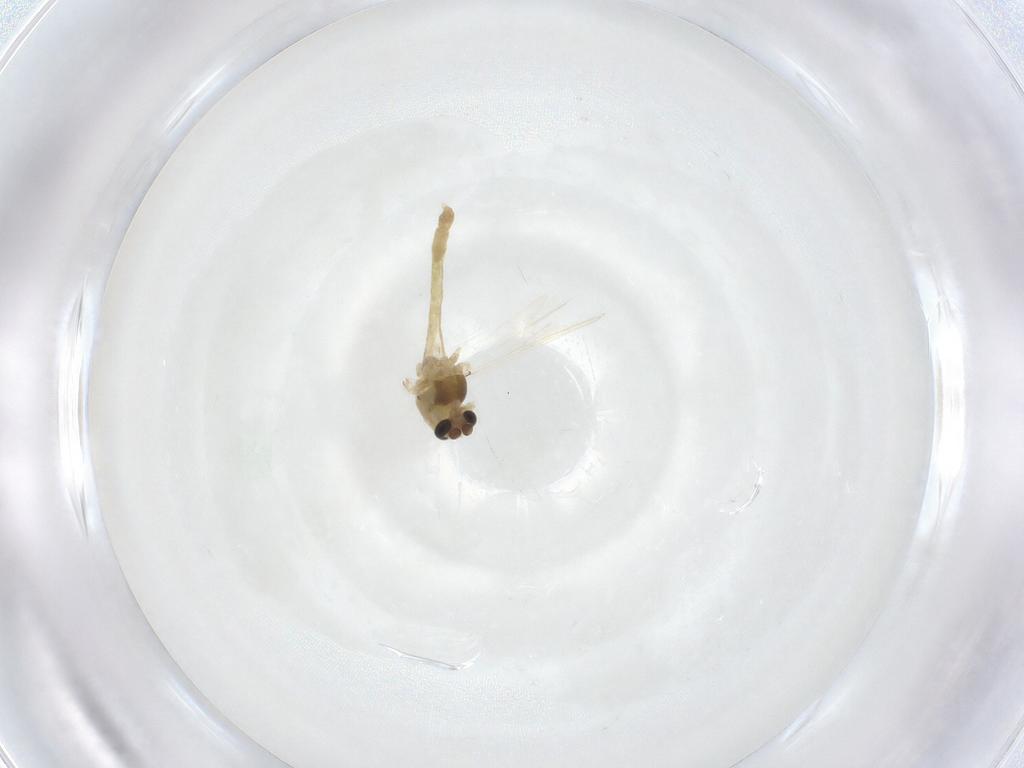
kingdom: Animalia
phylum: Arthropoda
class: Insecta
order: Diptera
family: Chironomidae
